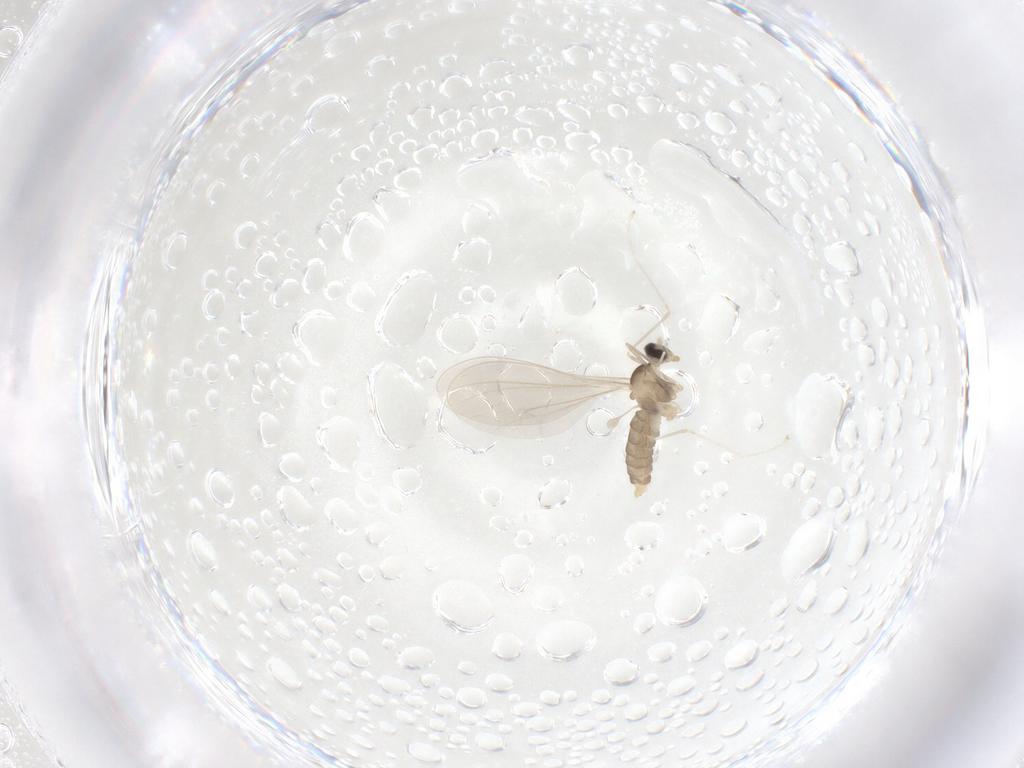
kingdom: Animalia
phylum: Arthropoda
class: Insecta
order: Diptera
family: Cecidomyiidae
